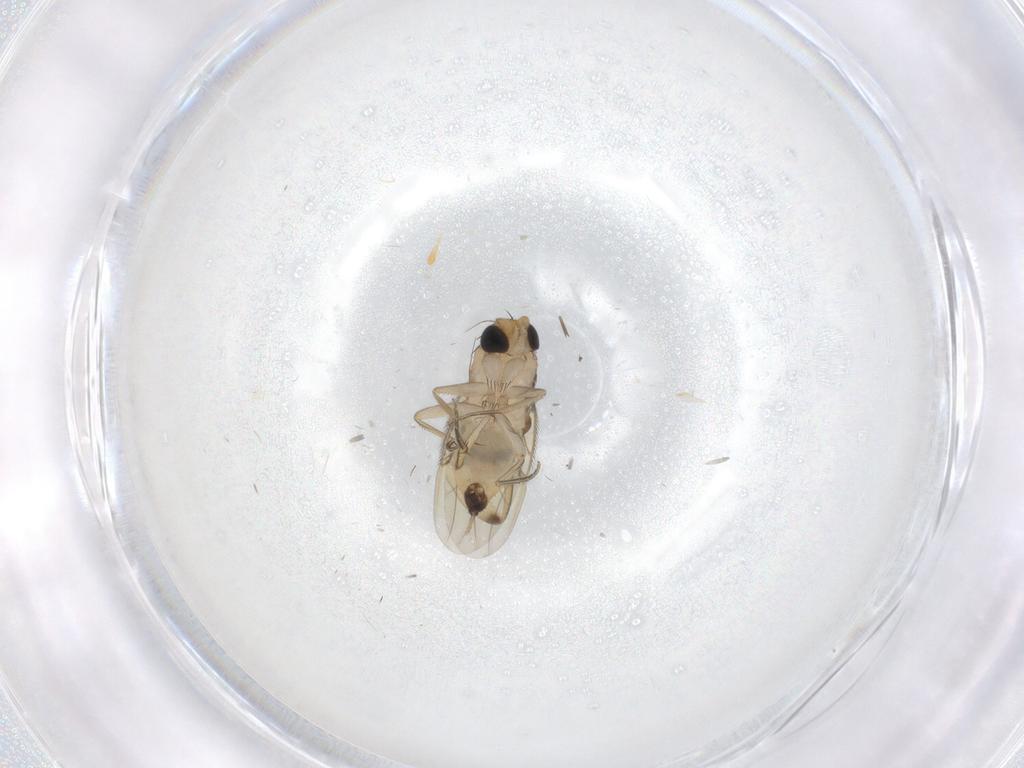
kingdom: Animalia
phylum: Arthropoda
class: Insecta
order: Diptera
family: Phoridae
